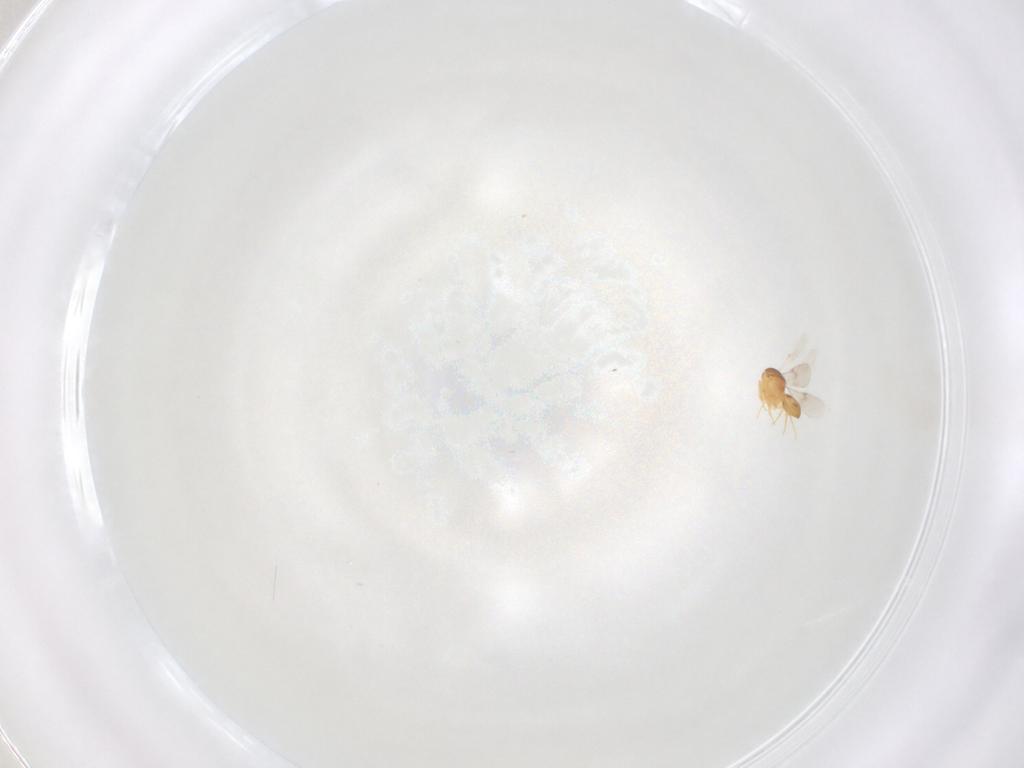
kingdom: Animalia
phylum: Arthropoda
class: Insecta
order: Hymenoptera
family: Scelionidae
